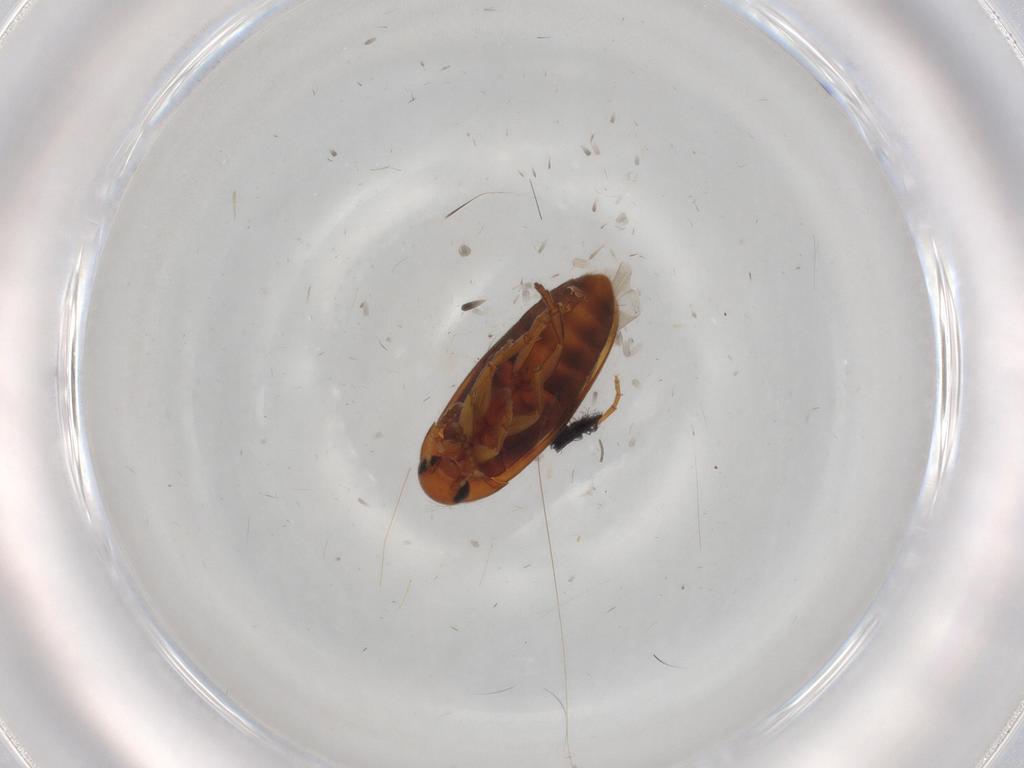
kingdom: Animalia
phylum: Arthropoda
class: Insecta
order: Coleoptera
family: Scraptiidae
